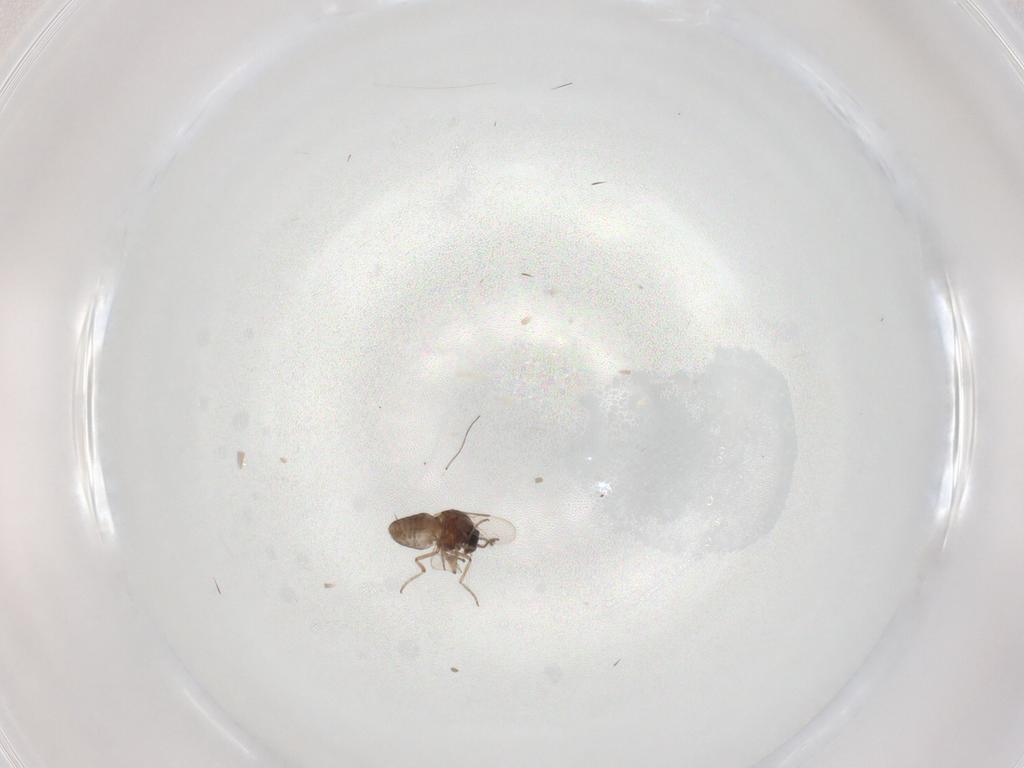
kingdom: Animalia
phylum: Arthropoda
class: Insecta
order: Diptera
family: Ceratopogonidae
